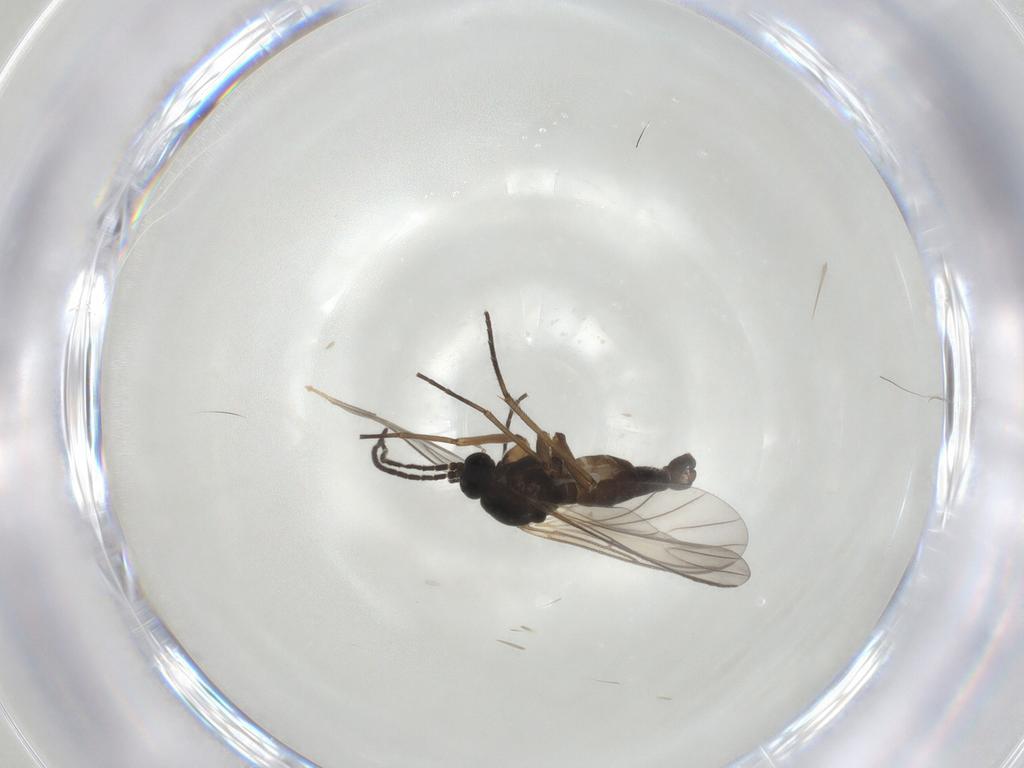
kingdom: Animalia
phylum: Arthropoda
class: Insecta
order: Diptera
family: Sciaridae
